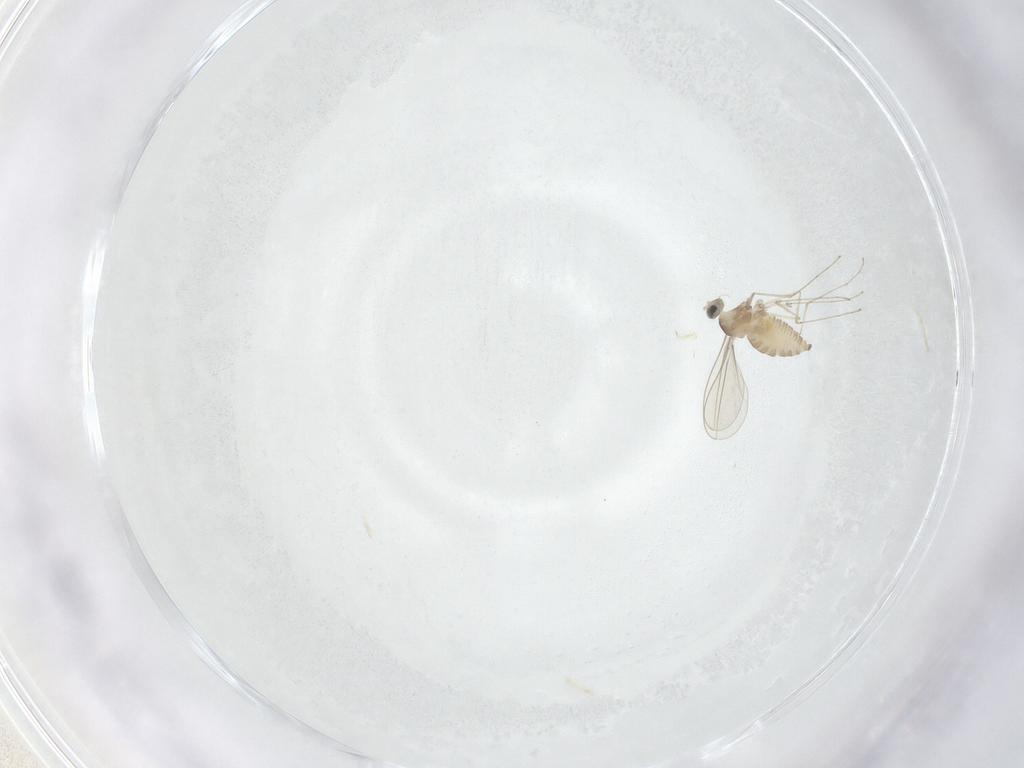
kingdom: Animalia
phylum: Arthropoda
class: Insecta
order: Diptera
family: Cecidomyiidae
